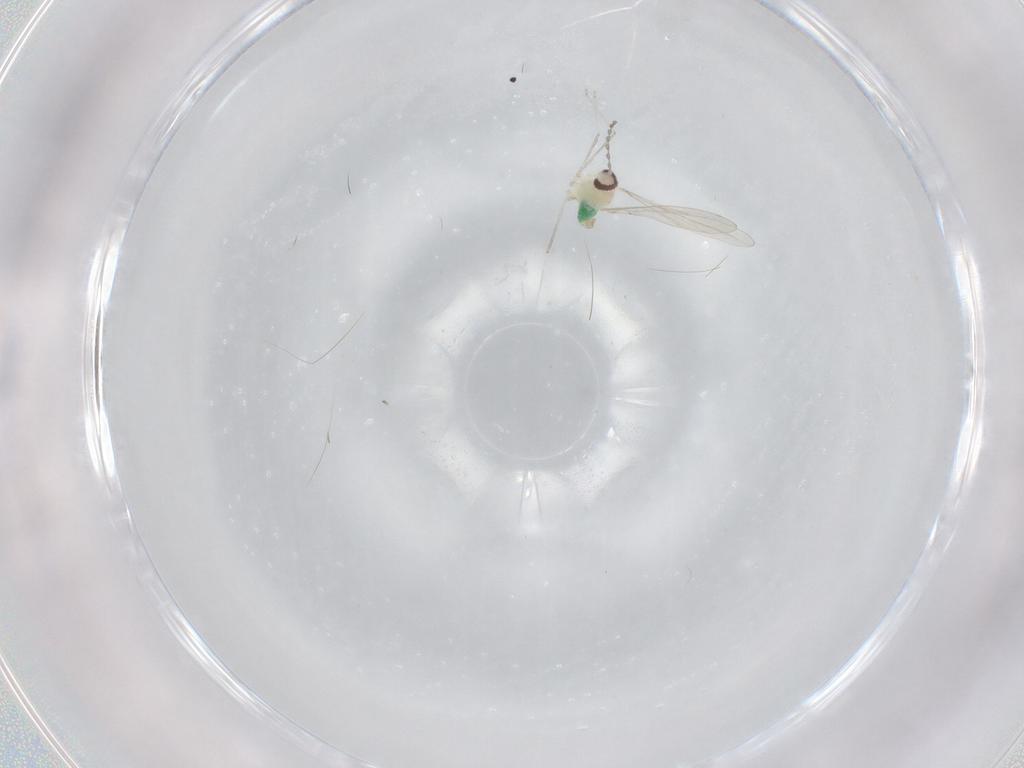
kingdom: Animalia
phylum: Arthropoda
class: Insecta
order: Diptera
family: Cecidomyiidae
